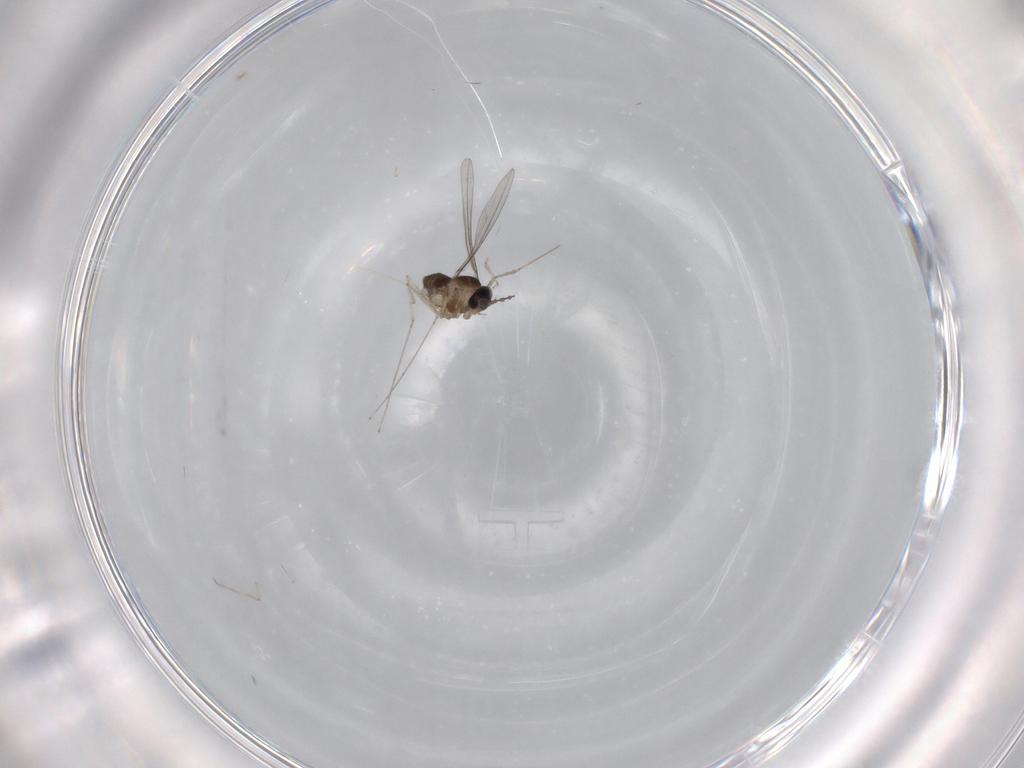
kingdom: Animalia
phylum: Arthropoda
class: Insecta
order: Diptera
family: Cecidomyiidae
